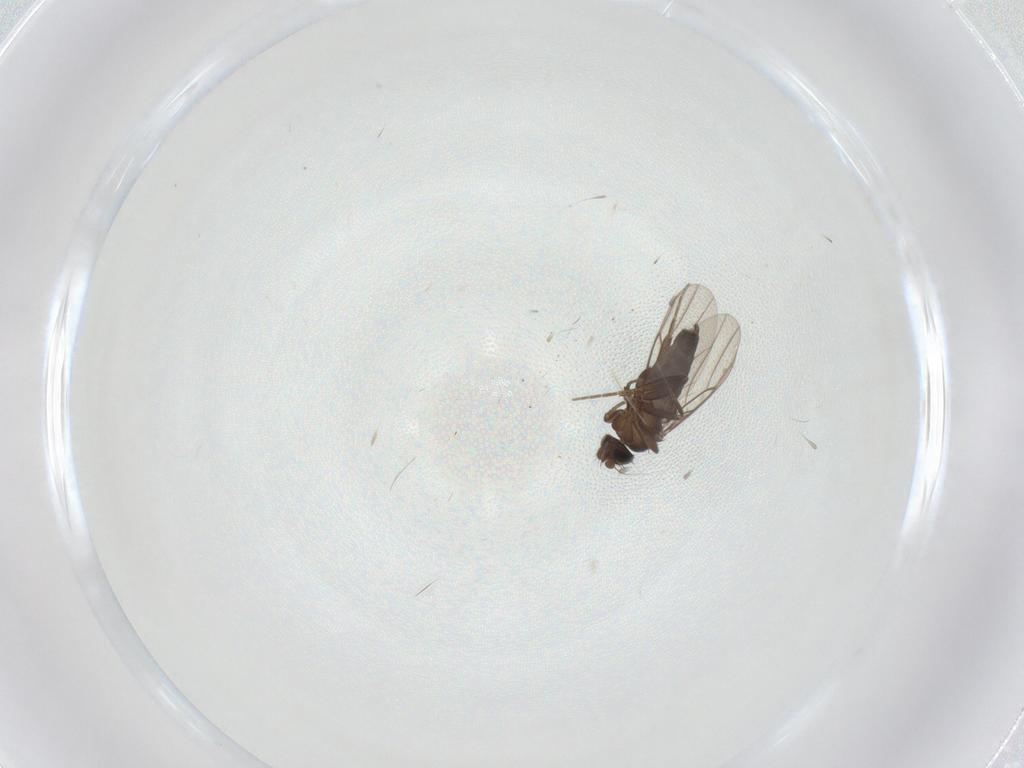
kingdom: Animalia
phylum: Arthropoda
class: Insecta
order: Diptera
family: Phoridae
